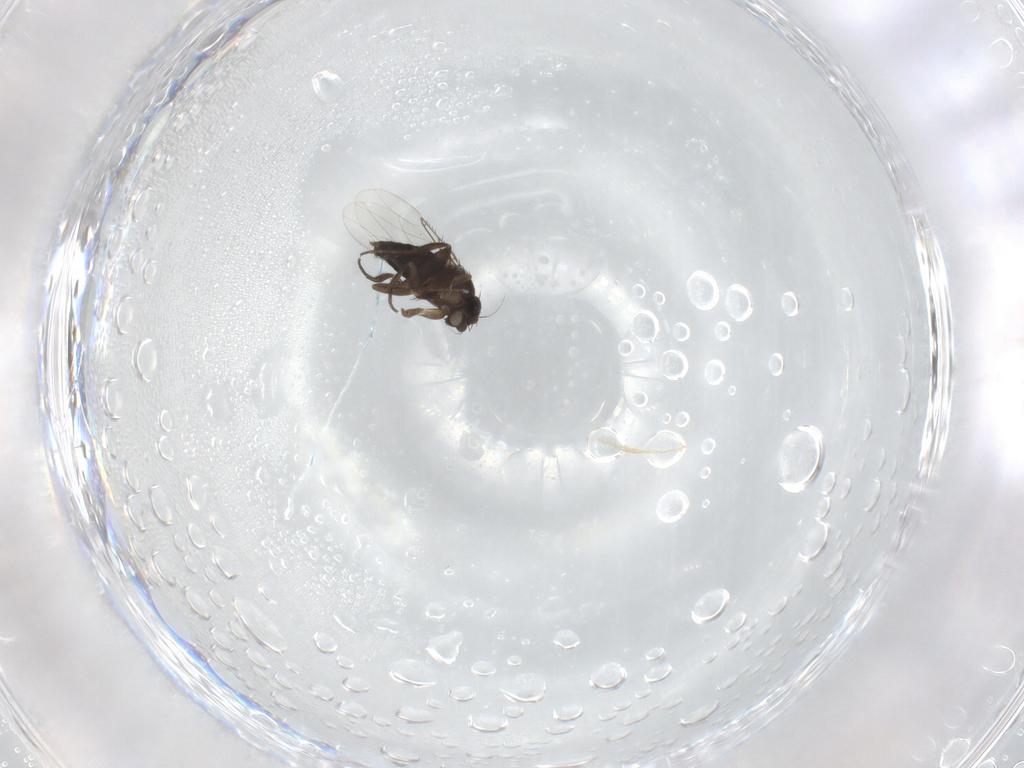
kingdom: Animalia
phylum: Arthropoda
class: Insecta
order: Diptera
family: Phoridae
